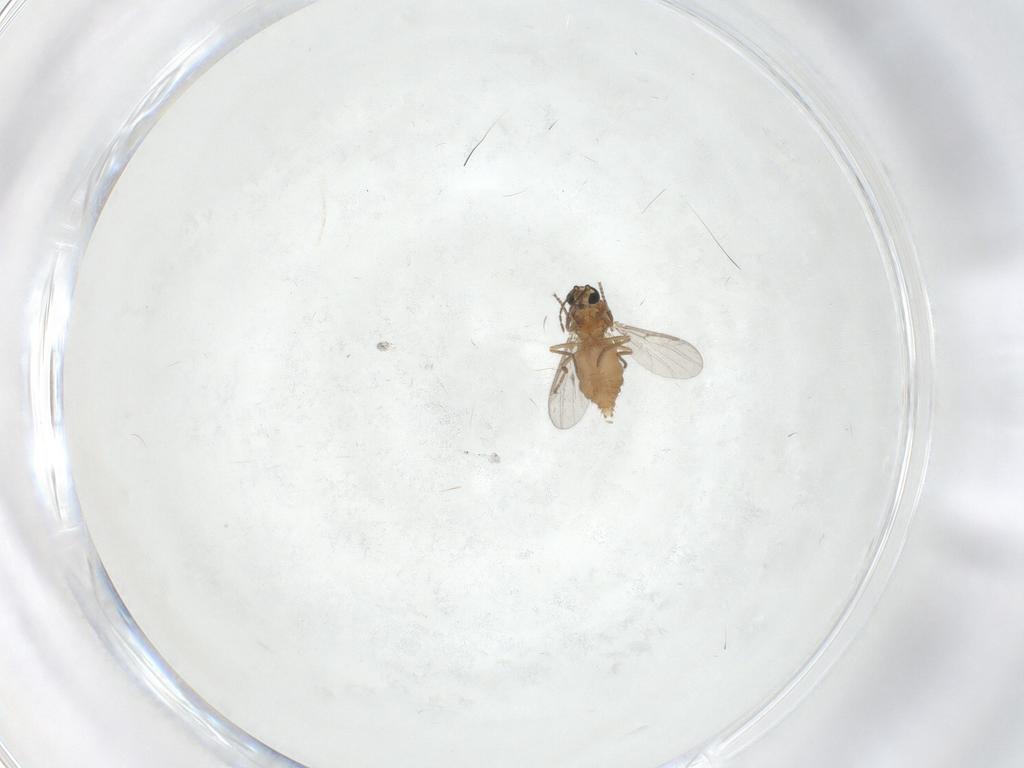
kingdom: Animalia
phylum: Arthropoda
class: Insecta
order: Diptera
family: Ceratopogonidae
